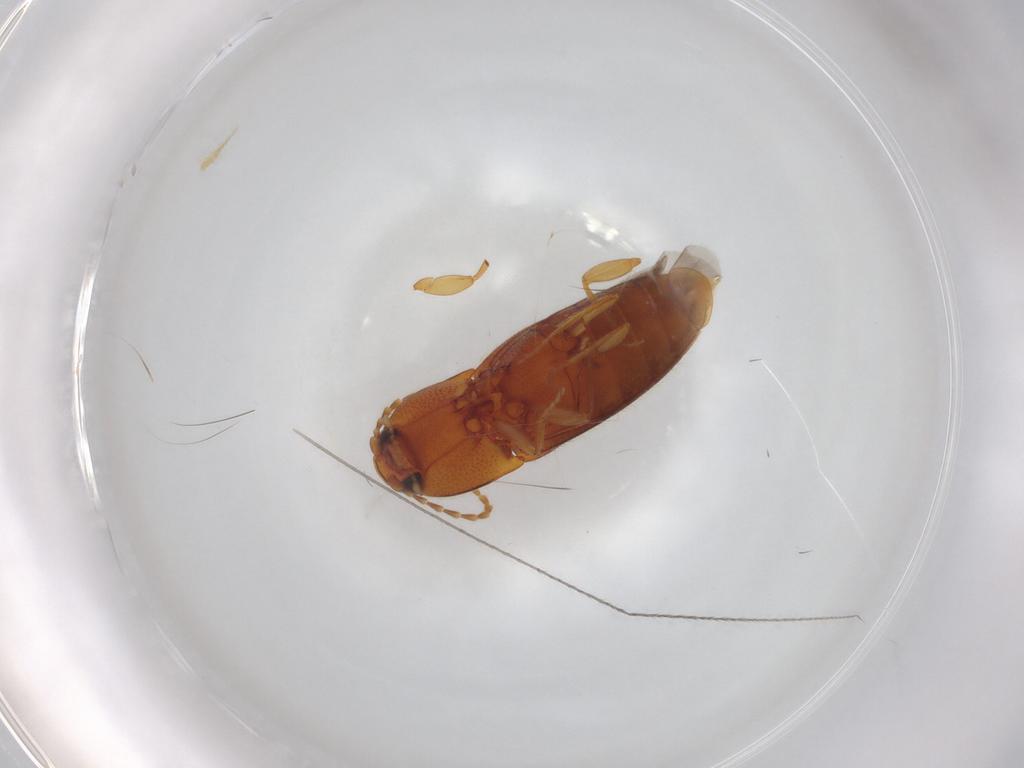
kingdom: Animalia
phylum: Arthropoda
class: Insecta
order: Coleoptera
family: Elateridae
